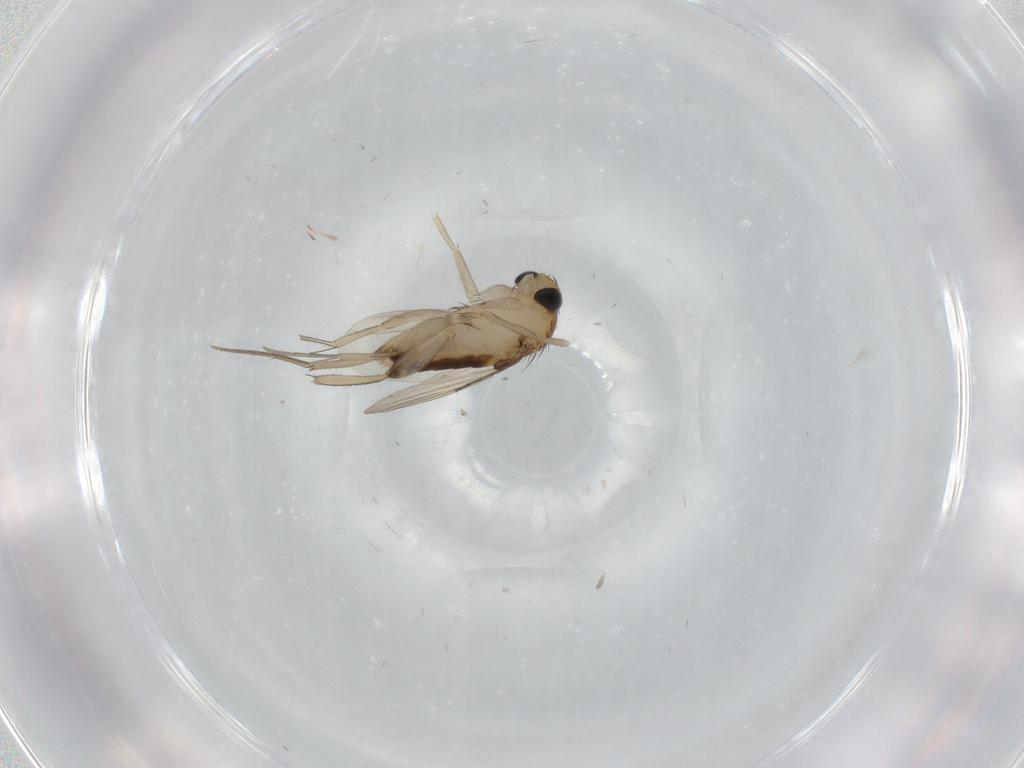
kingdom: Animalia
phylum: Arthropoda
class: Insecta
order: Diptera
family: Phoridae
